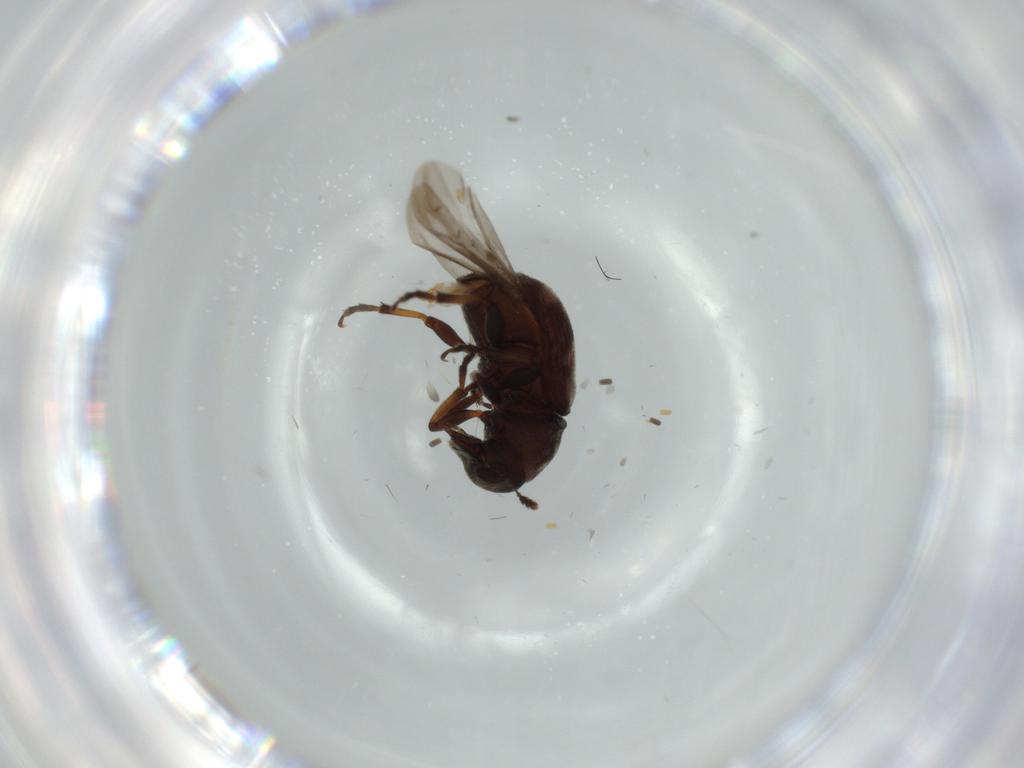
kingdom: Animalia
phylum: Arthropoda
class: Insecta
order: Coleoptera
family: Anthribidae
